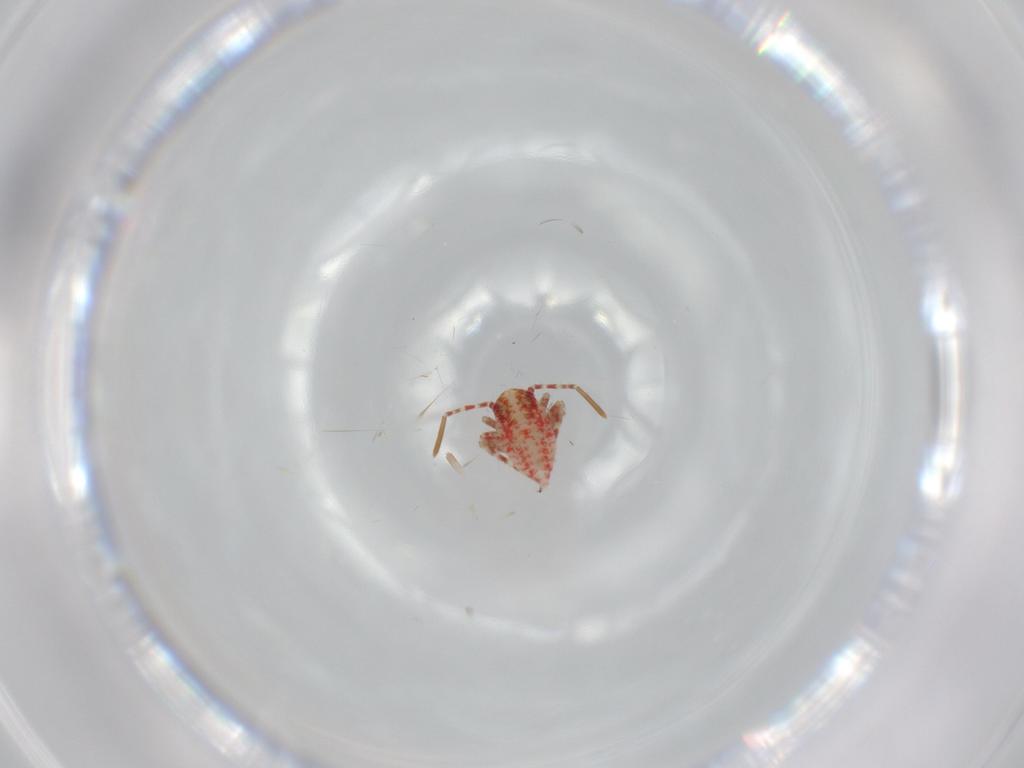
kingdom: Animalia
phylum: Arthropoda
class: Insecta
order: Hemiptera
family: Miridae
